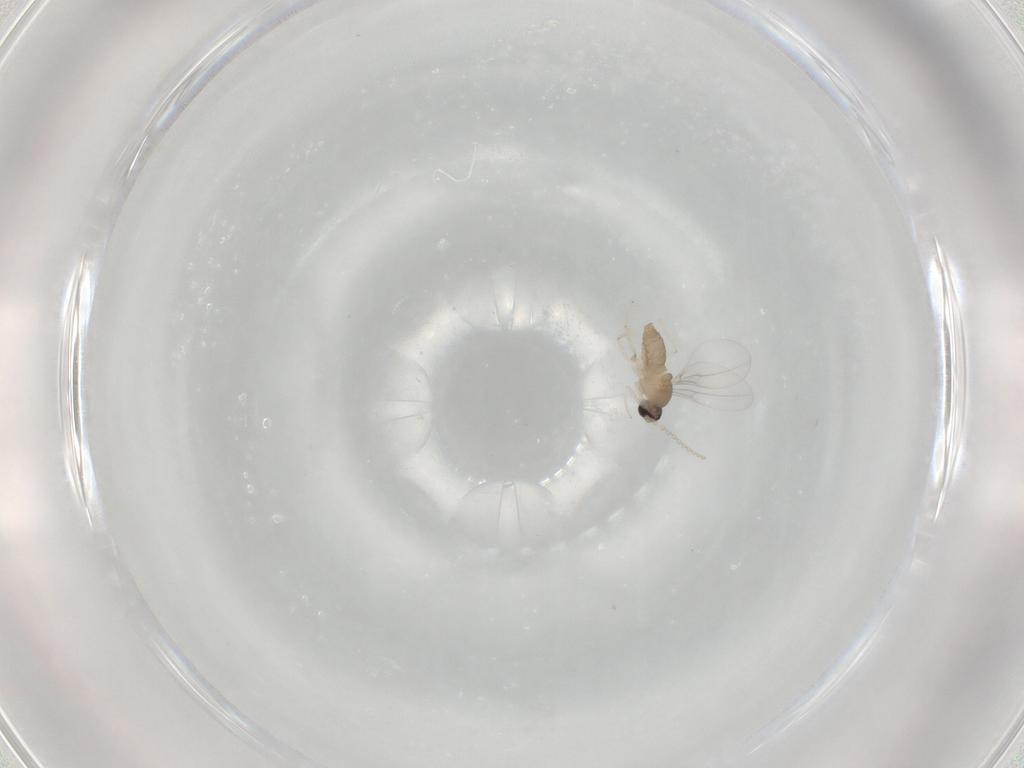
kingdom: Animalia
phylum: Arthropoda
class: Insecta
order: Diptera
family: Cecidomyiidae
